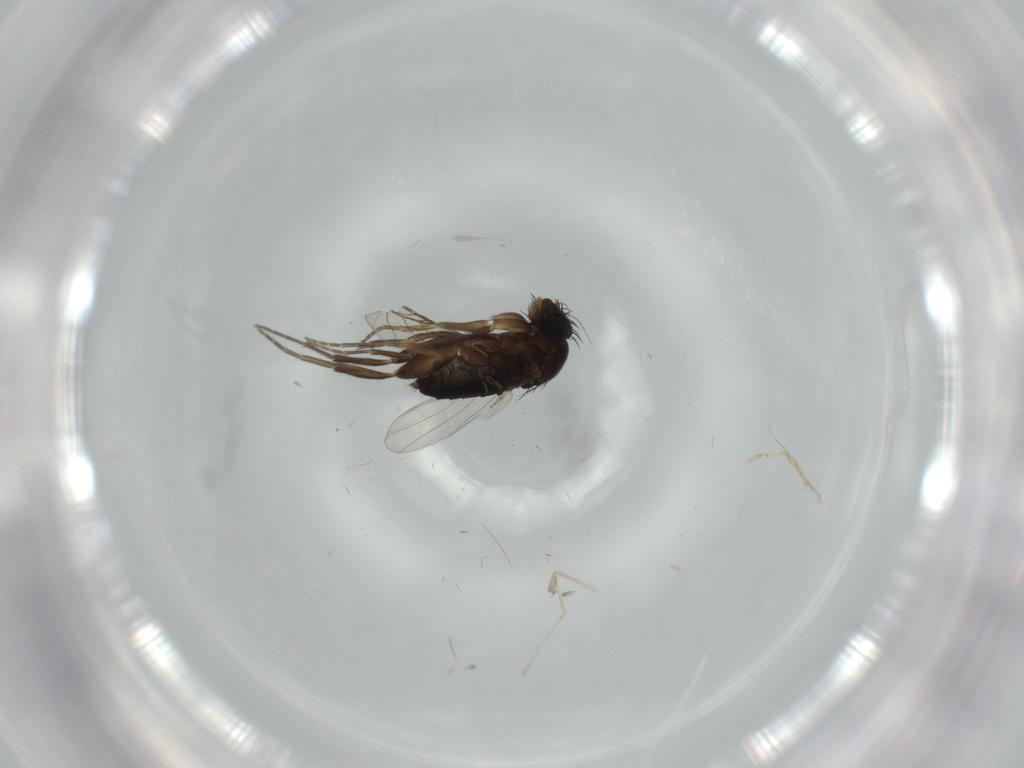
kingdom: Animalia
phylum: Arthropoda
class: Insecta
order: Diptera
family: Phoridae
